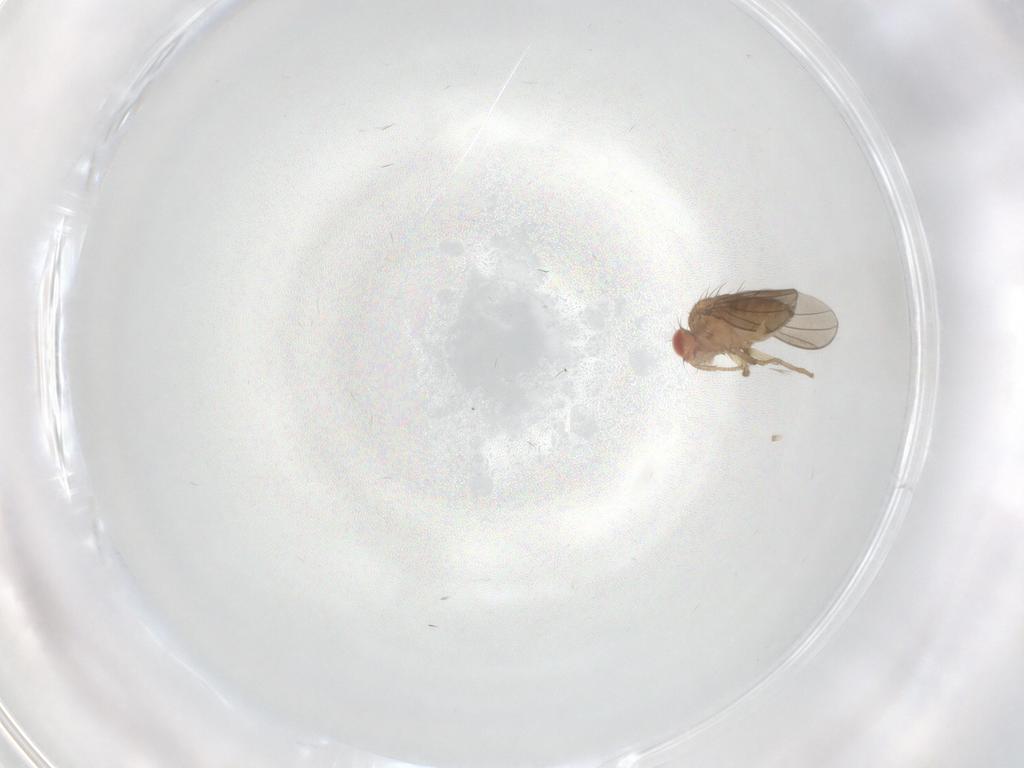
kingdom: Animalia
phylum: Arthropoda
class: Insecta
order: Diptera
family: Drosophilidae
